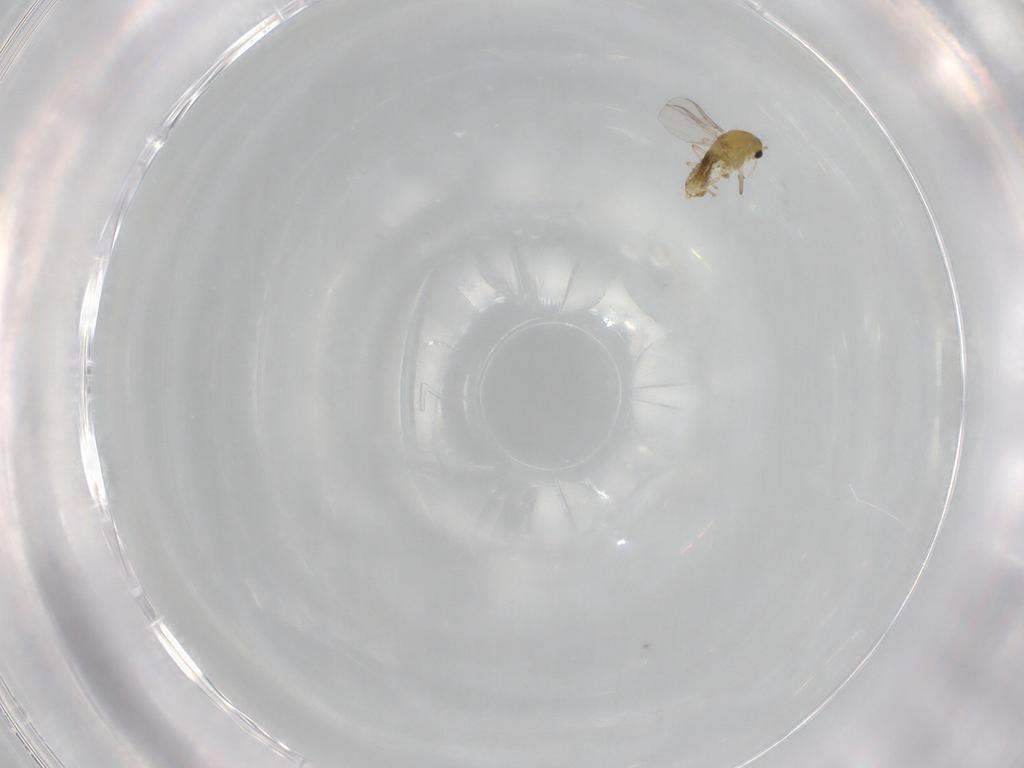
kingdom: Animalia
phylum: Arthropoda
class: Insecta
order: Diptera
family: Chironomidae
